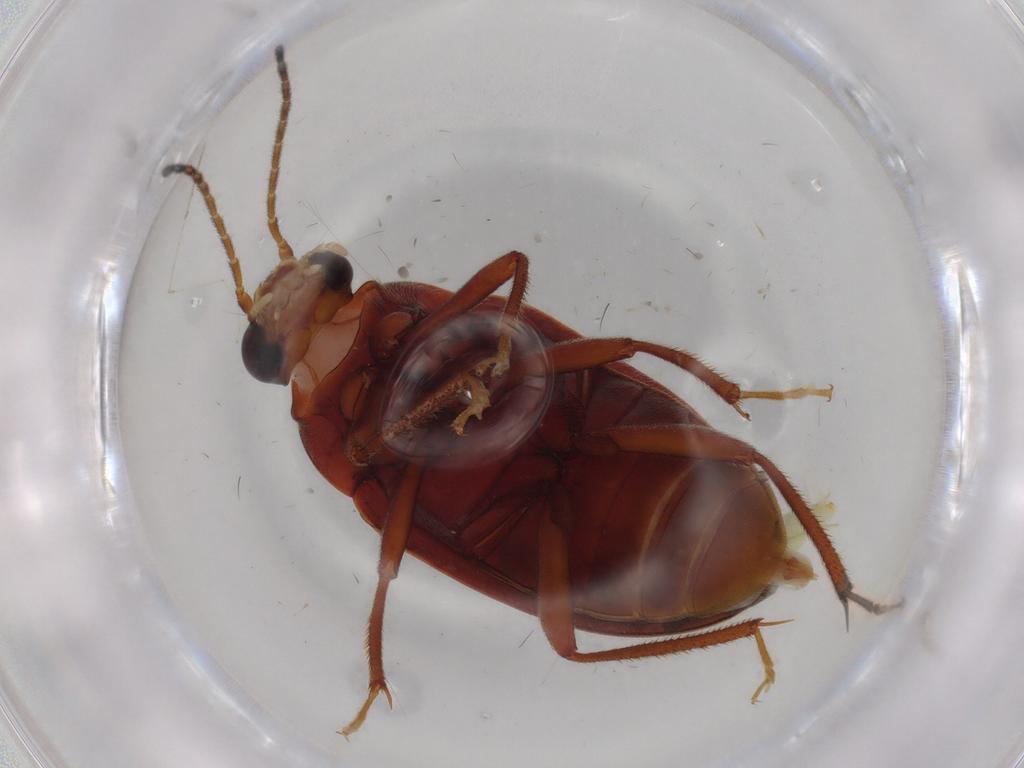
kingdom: Animalia
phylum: Arthropoda
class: Insecta
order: Coleoptera
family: Ptilodactylidae
